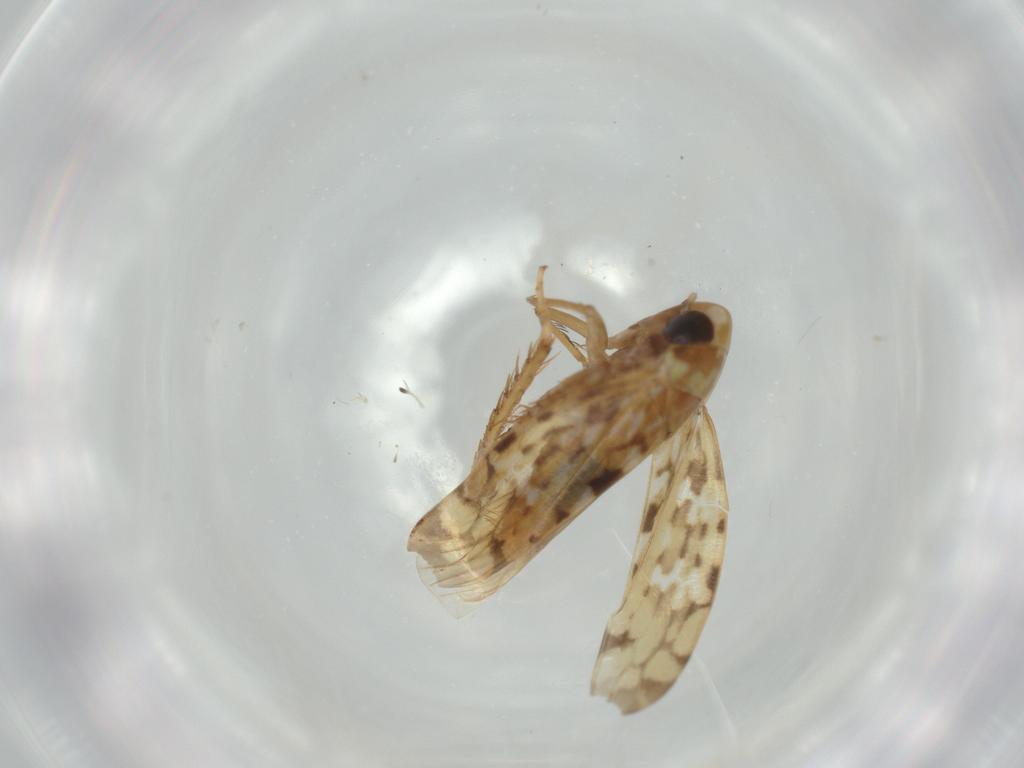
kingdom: Animalia
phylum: Arthropoda
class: Insecta
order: Hemiptera
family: Cicadellidae
